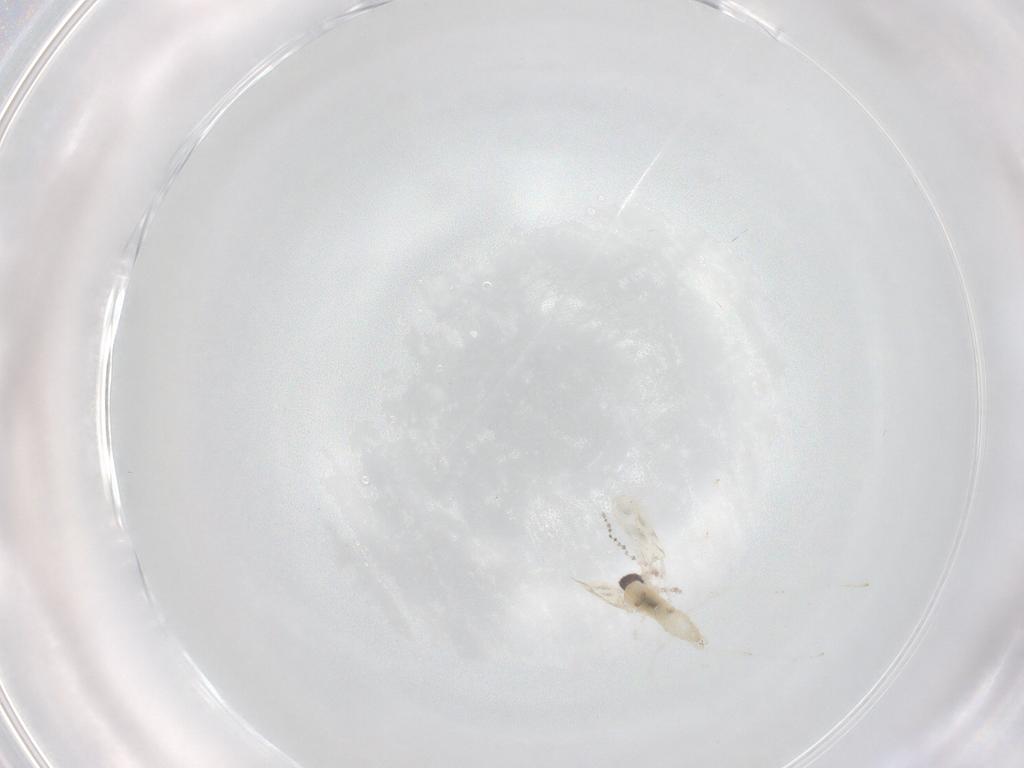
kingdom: Animalia
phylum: Arthropoda
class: Insecta
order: Diptera
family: Cecidomyiidae
